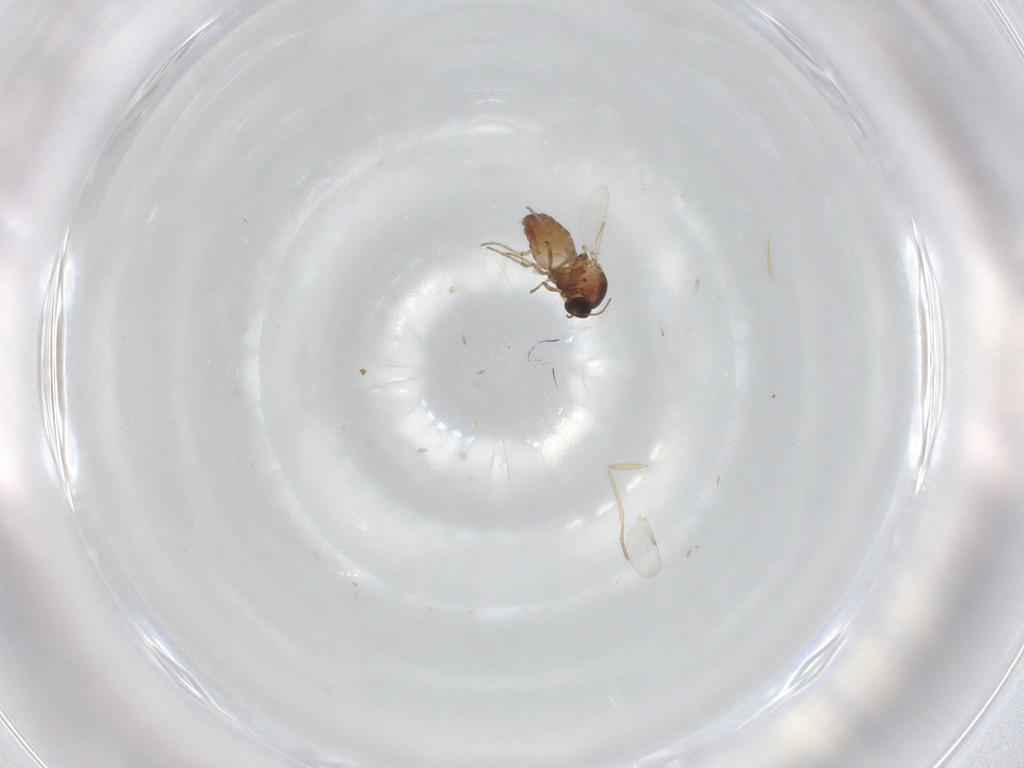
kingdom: Animalia
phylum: Arthropoda
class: Insecta
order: Diptera
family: Ceratopogonidae
